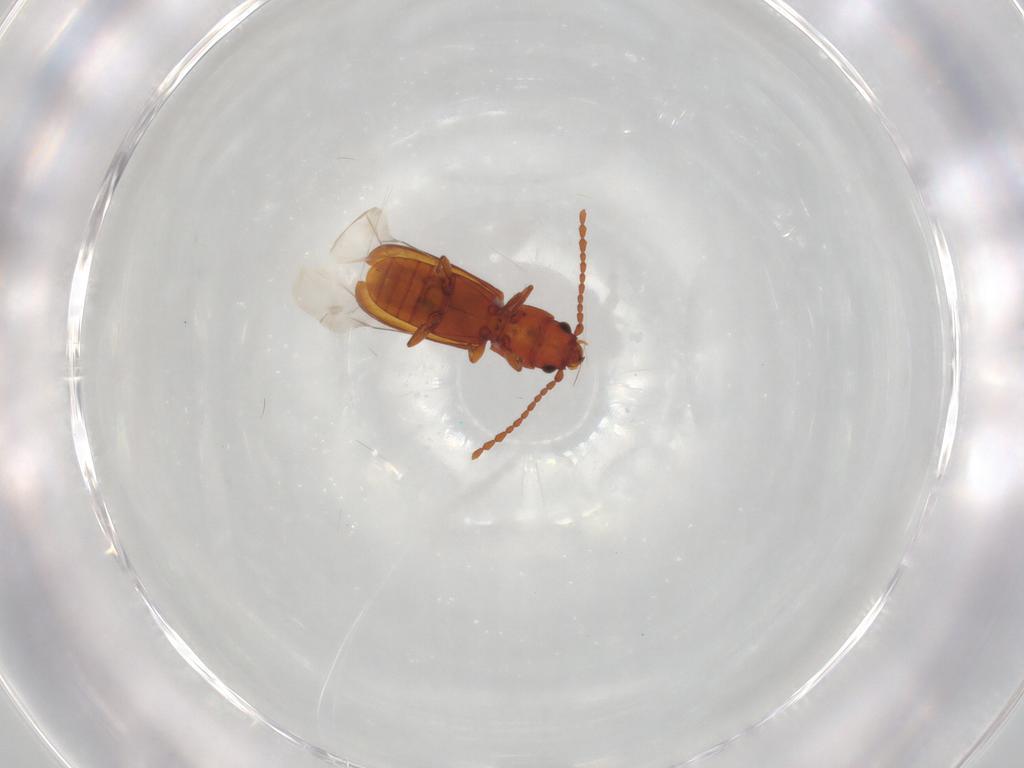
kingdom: Animalia
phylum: Arthropoda
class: Insecta
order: Coleoptera
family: Laemophloeidae
